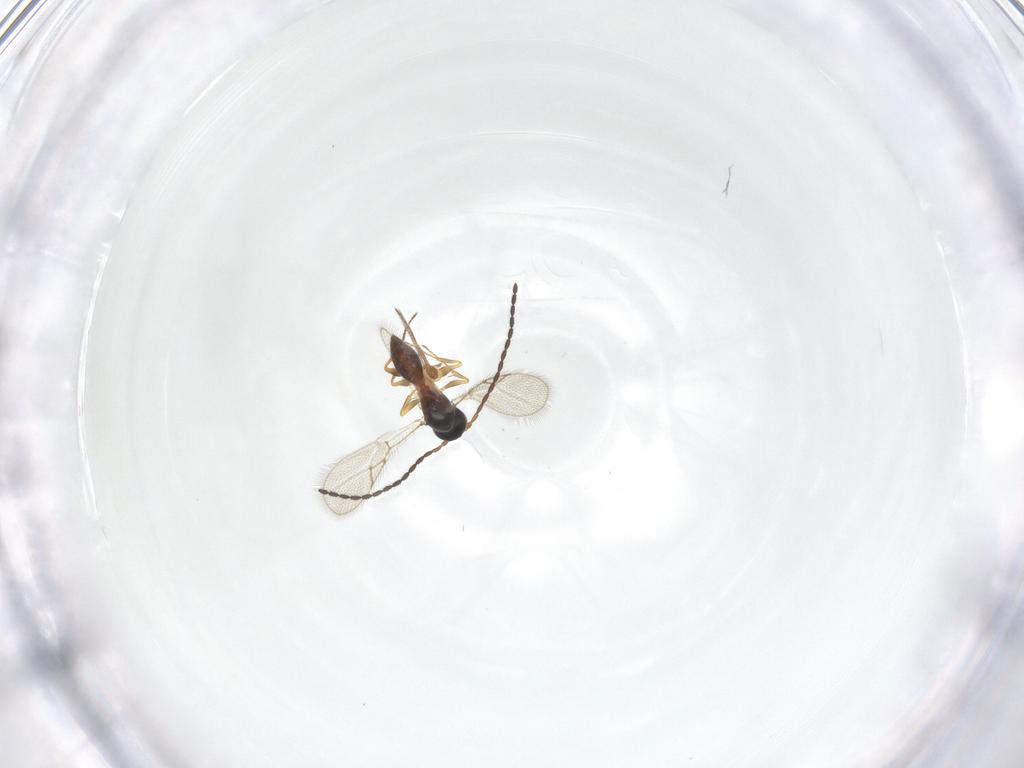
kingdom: Animalia
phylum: Arthropoda
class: Insecta
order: Hymenoptera
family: Figitidae
